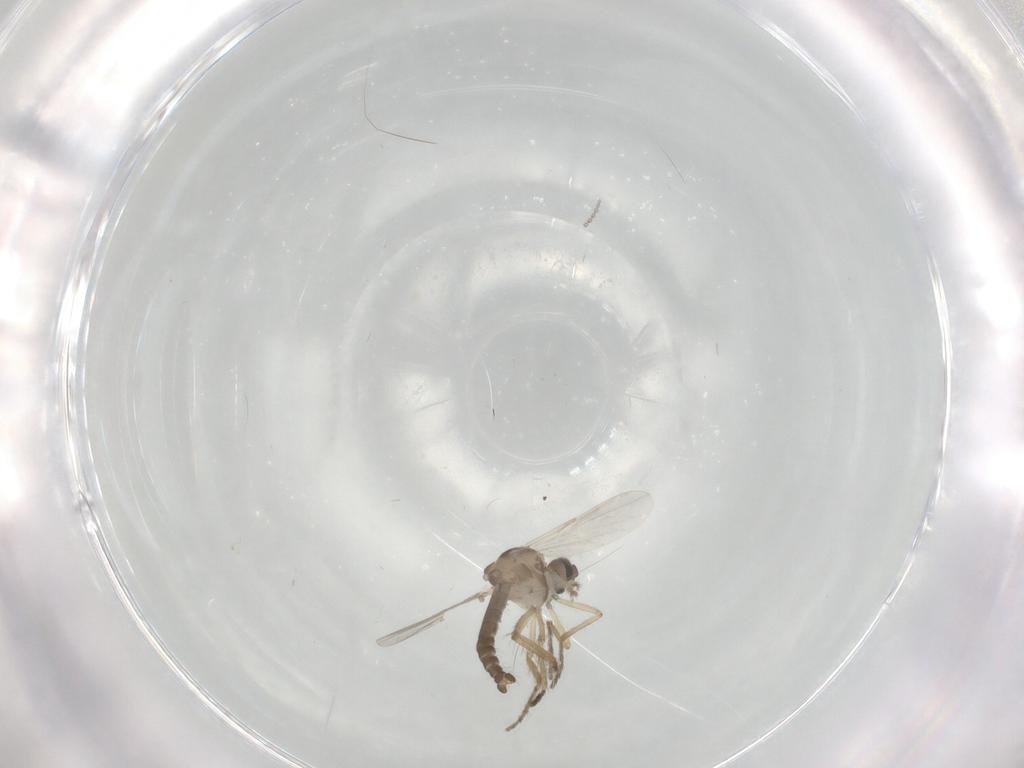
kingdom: Animalia
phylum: Arthropoda
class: Insecta
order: Diptera
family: Ceratopogonidae
